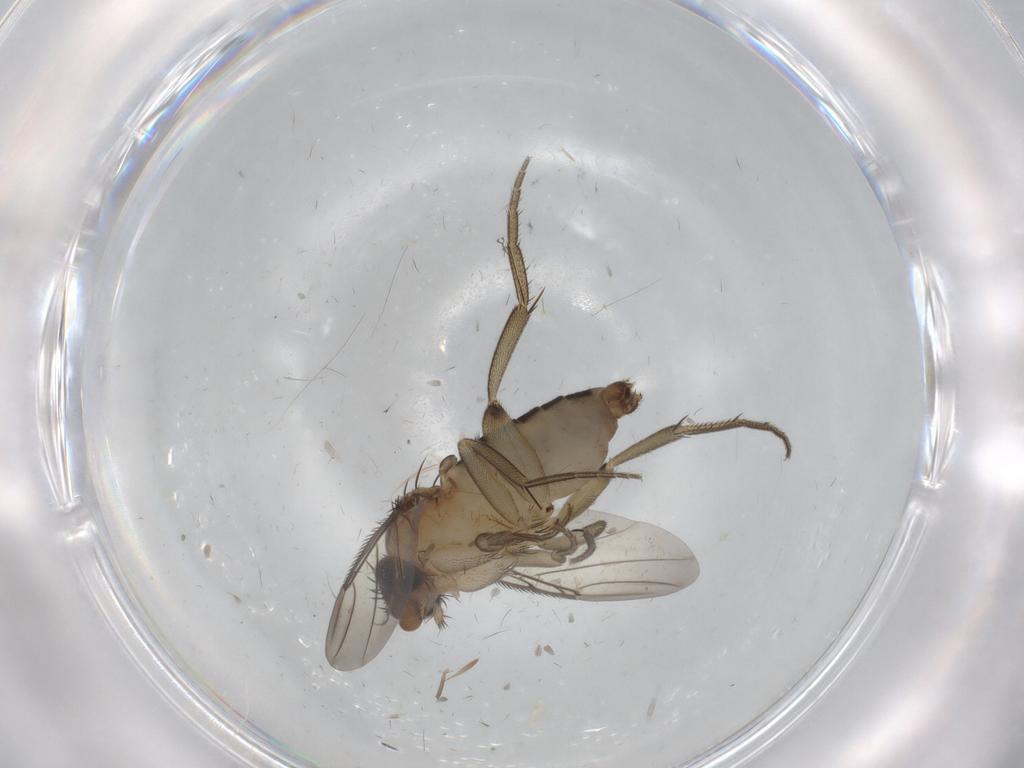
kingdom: Animalia
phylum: Arthropoda
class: Insecta
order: Diptera
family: Phoridae
